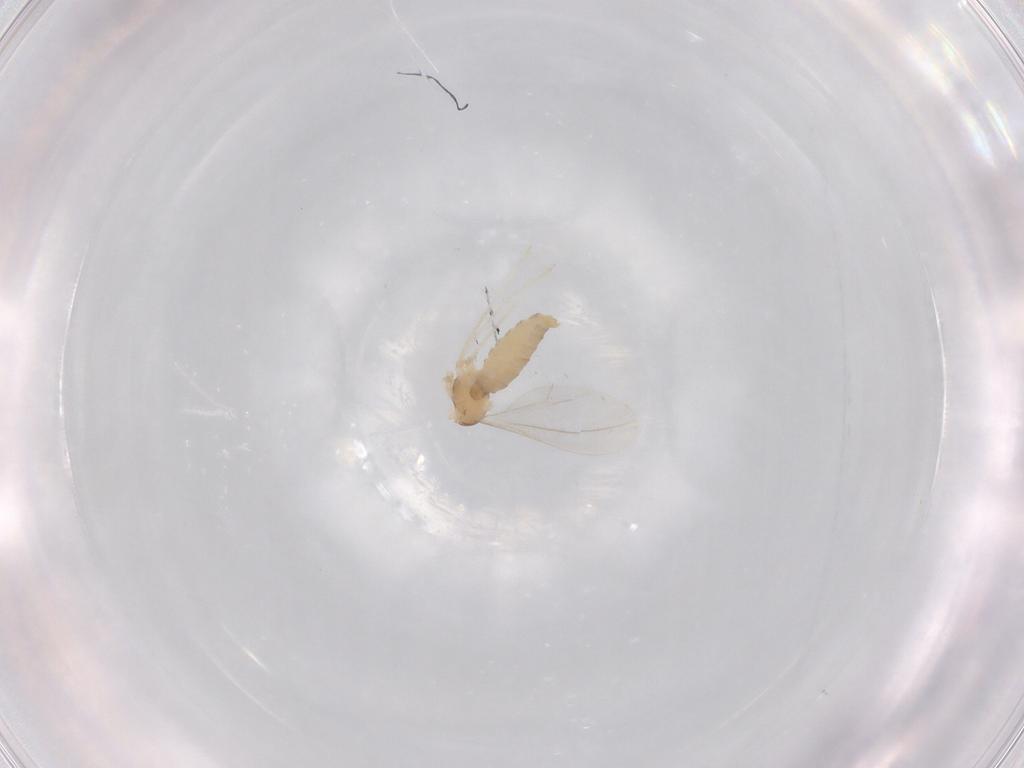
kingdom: Animalia
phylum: Arthropoda
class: Insecta
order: Diptera
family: Cecidomyiidae
